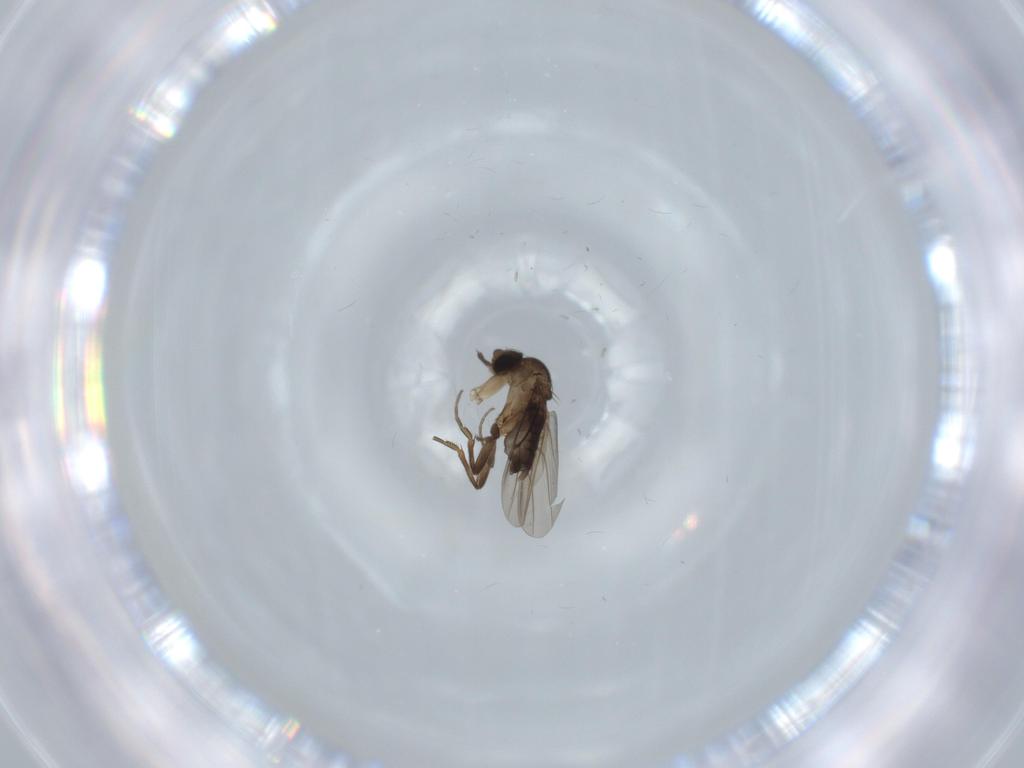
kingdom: Animalia
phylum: Arthropoda
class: Insecta
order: Diptera
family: Phoridae
